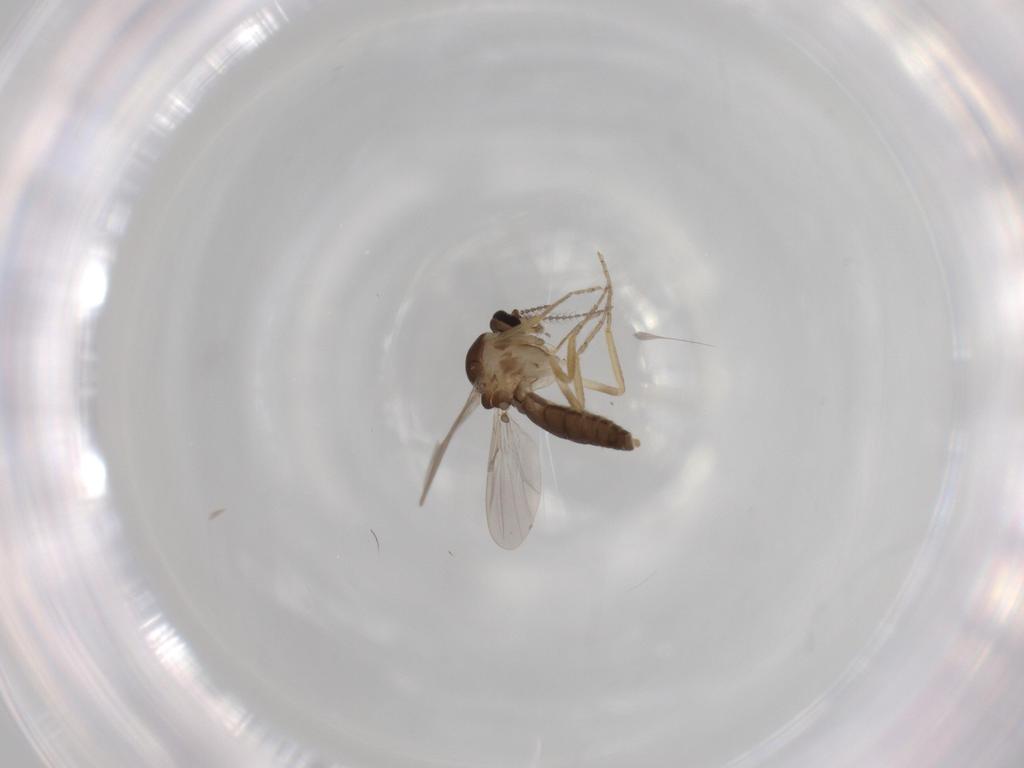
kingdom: Animalia
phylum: Arthropoda
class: Insecta
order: Diptera
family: Ceratopogonidae
